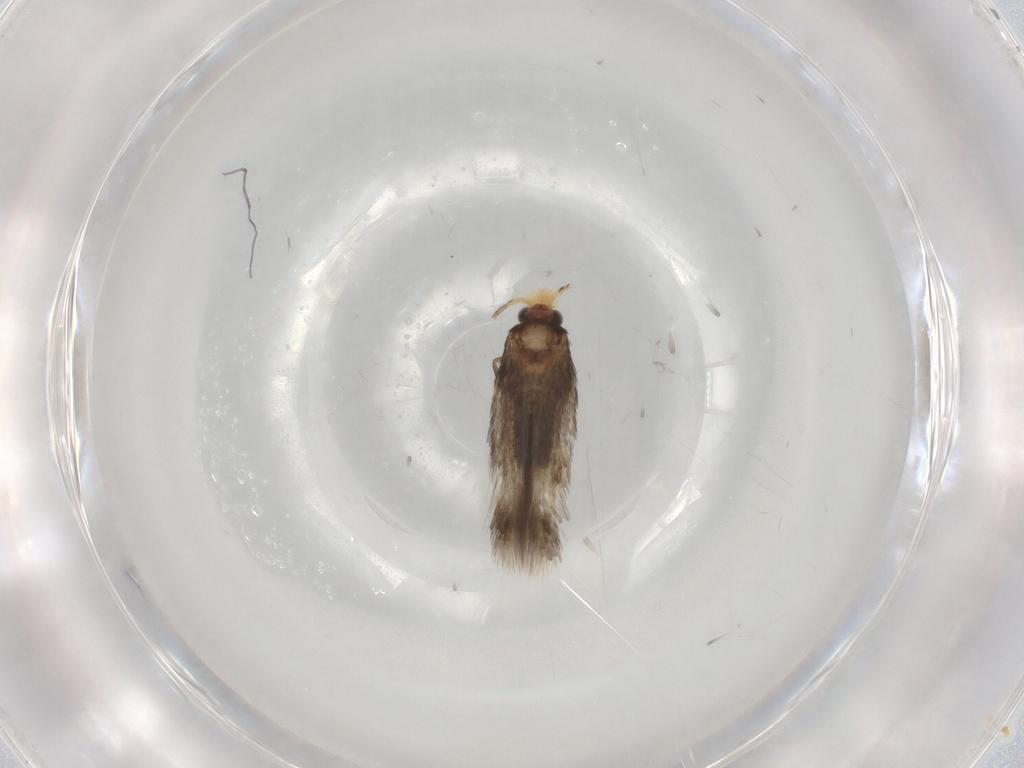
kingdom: Animalia
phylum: Arthropoda
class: Insecta
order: Lepidoptera
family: Nepticulidae
